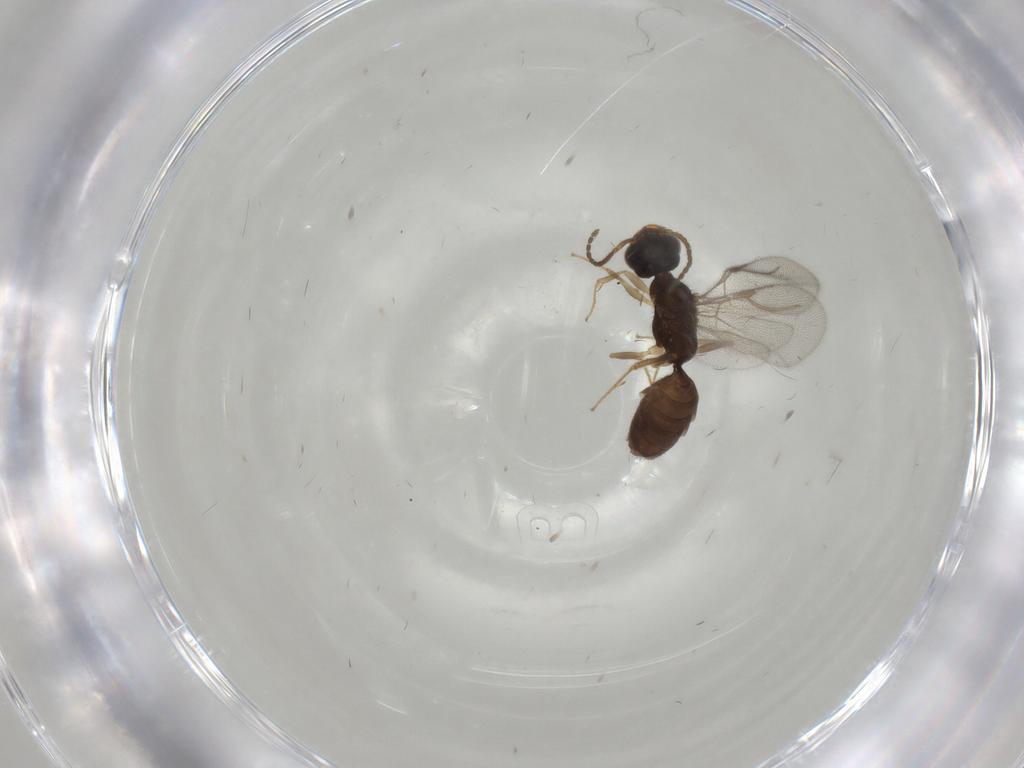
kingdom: Animalia
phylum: Arthropoda
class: Insecta
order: Hymenoptera
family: Bethylidae
